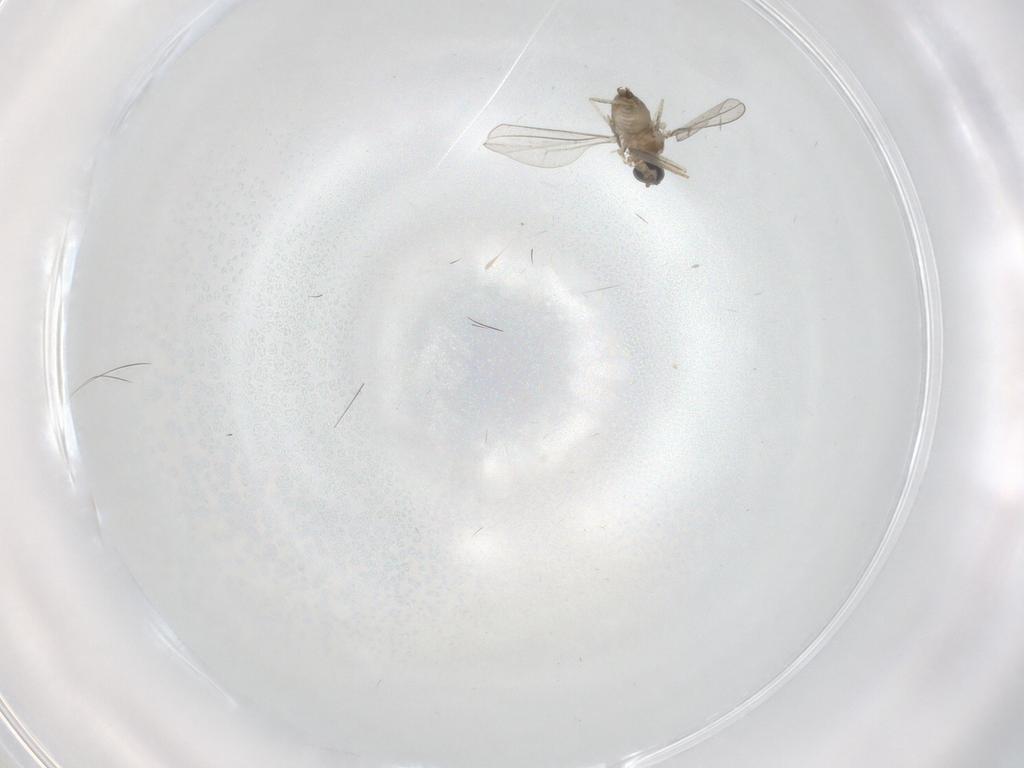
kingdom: Animalia
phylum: Arthropoda
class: Insecta
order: Diptera
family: Cecidomyiidae
